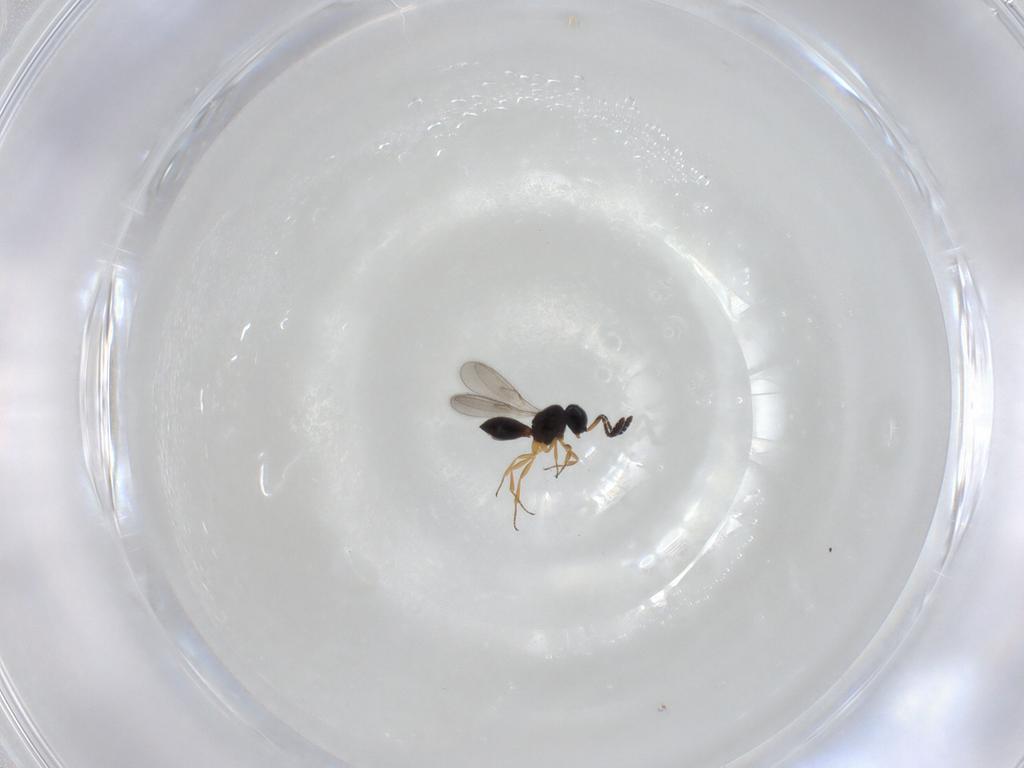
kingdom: Animalia
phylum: Arthropoda
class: Insecta
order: Hymenoptera
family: Scelionidae
